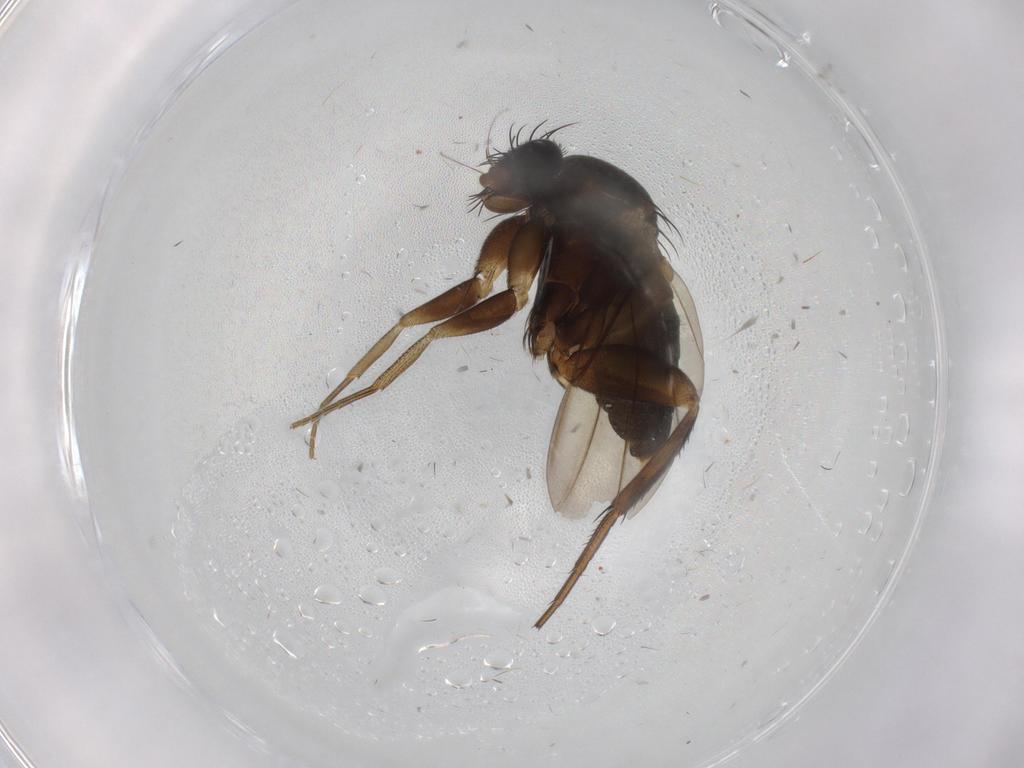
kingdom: Animalia
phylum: Arthropoda
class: Insecta
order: Diptera
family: Phoridae
